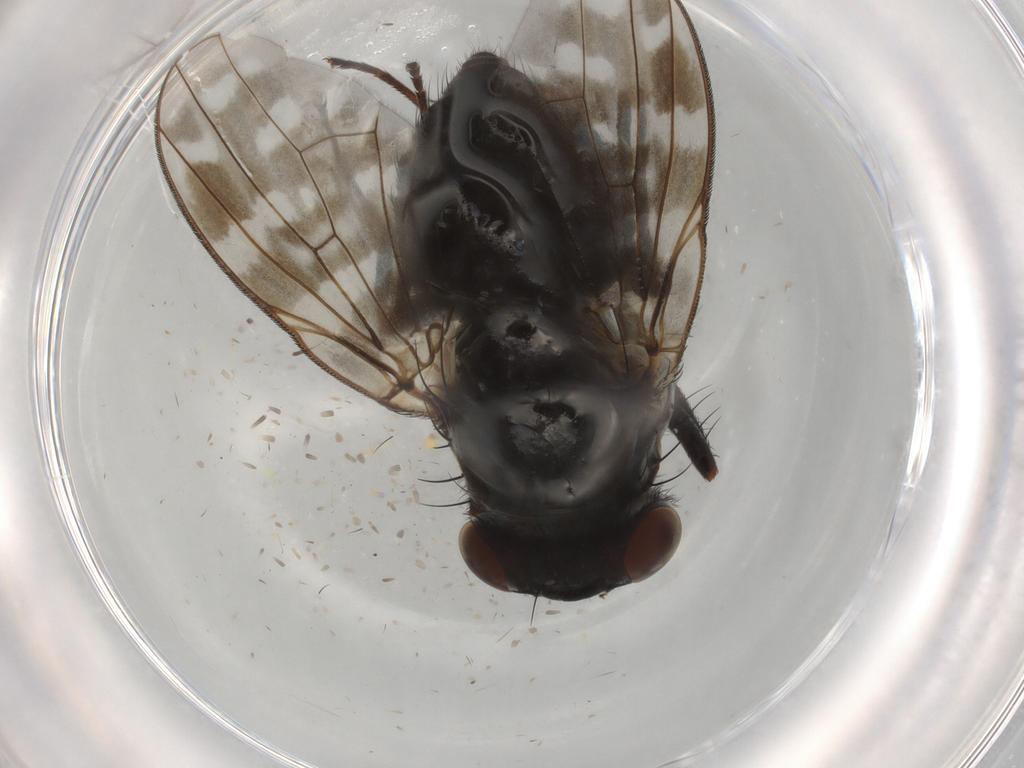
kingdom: Animalia
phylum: Arthropoda
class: Insecta
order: Diptera
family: Lauxaniidae
